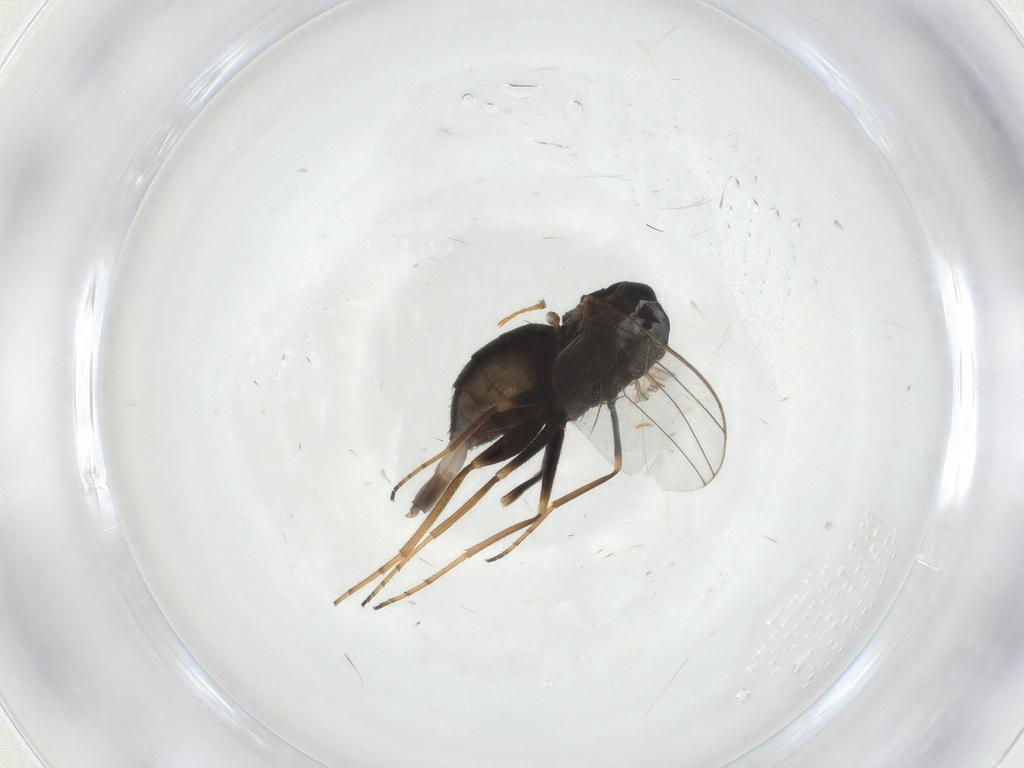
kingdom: Animalia
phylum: Arthropoda
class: Insecta
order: Diptera
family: Dolichopodidae
